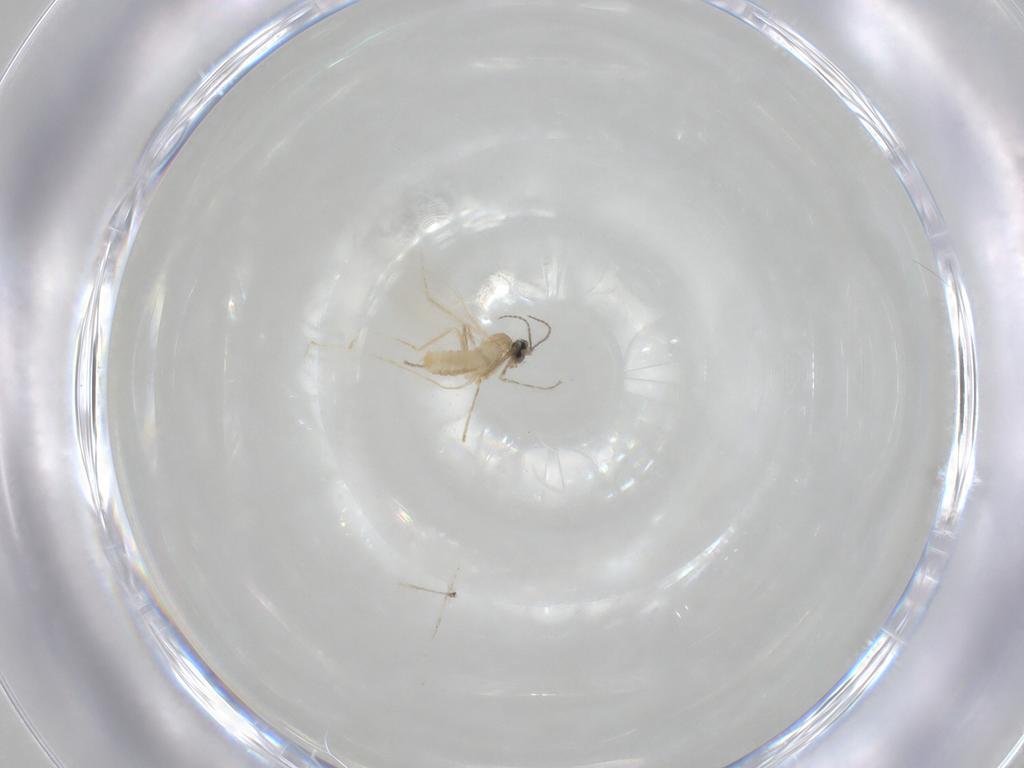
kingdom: Animalia
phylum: Arthropoda
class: Insecta
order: Diptera
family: Cecidomyiidae
